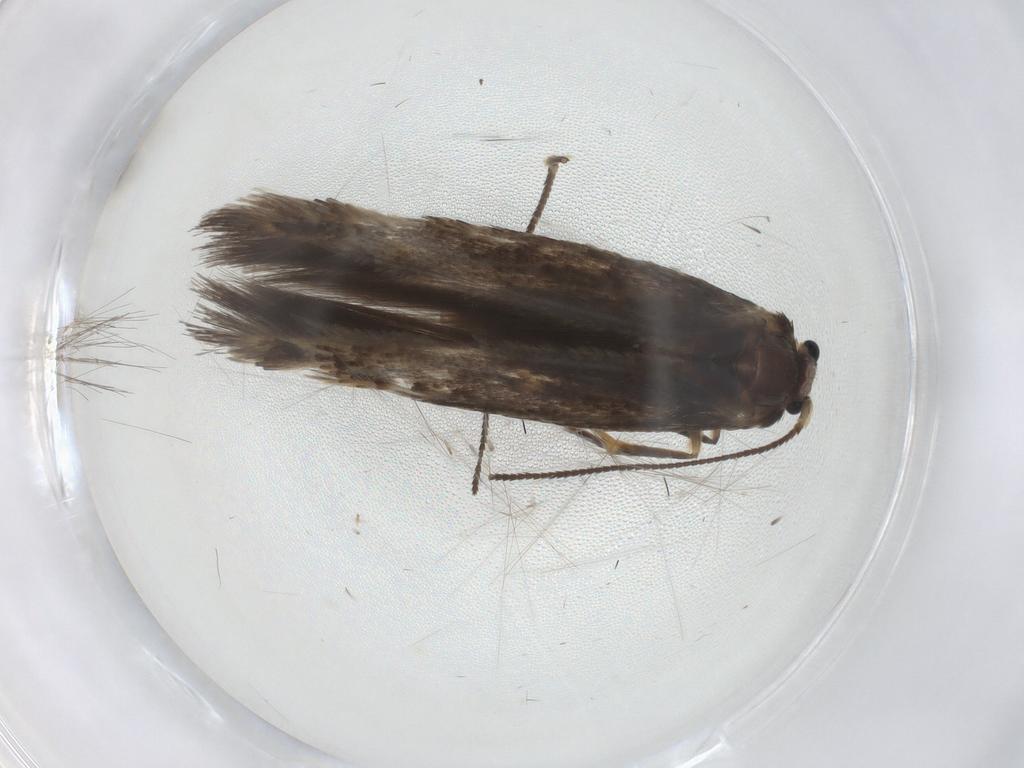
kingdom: Animalia
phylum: Arthropoda
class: Insecta
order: Lepidoptera
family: Nepticulidae
